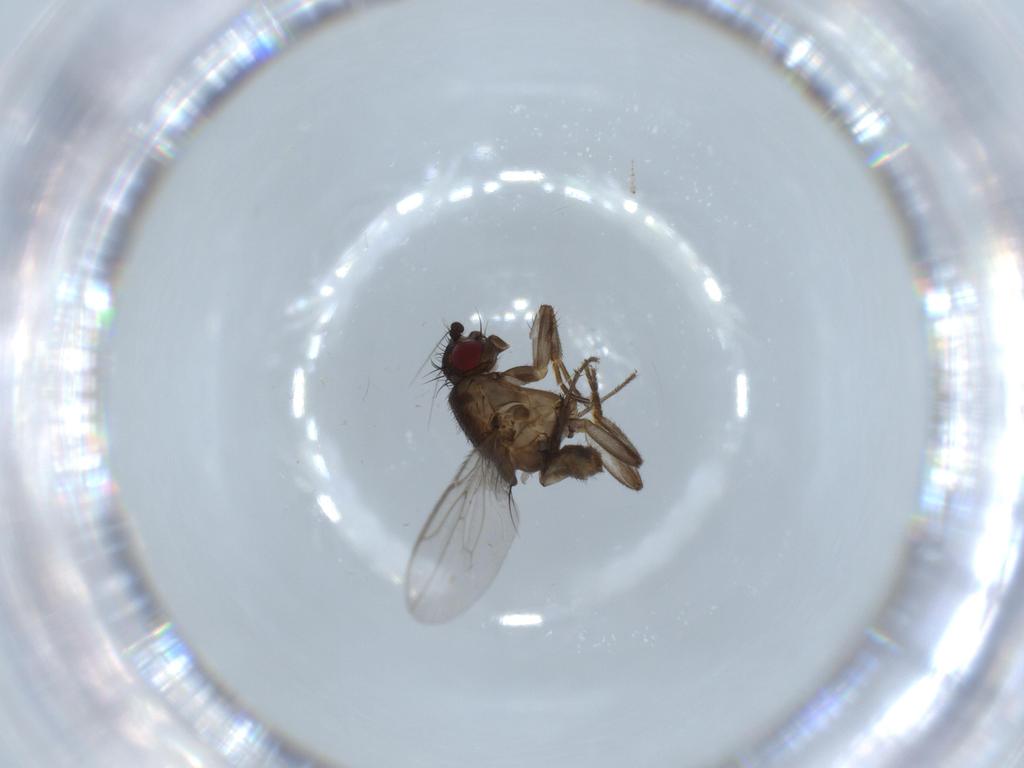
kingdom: Animalia
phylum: Arthropoda
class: Insecta
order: Diptera
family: Sphaeroceridae
